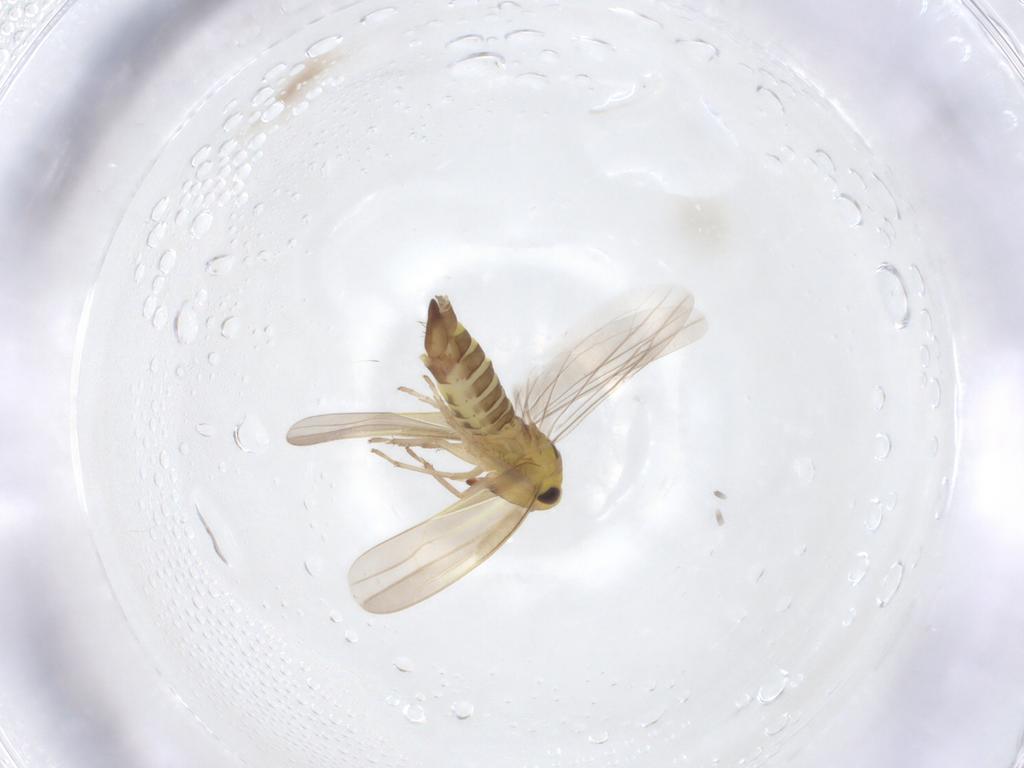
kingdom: Animalia
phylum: Arthropoda
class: Insecta
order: Hemiptera
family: Cicadellidae
